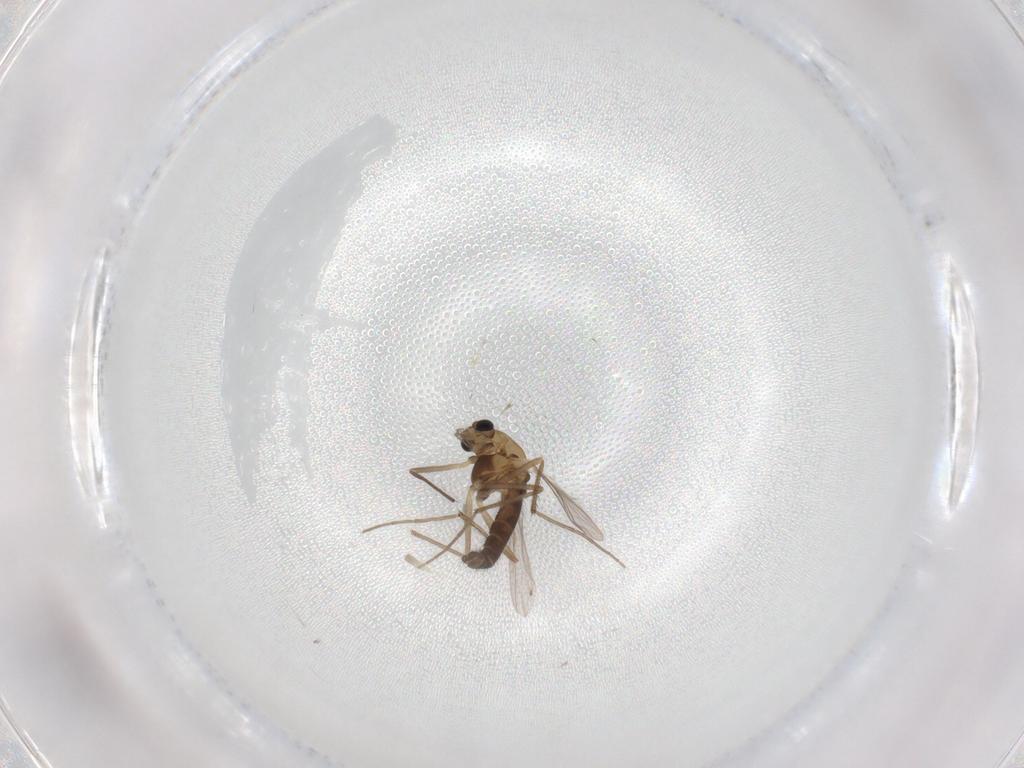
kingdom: Animalia
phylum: Arthropoda
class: Insecta
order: Diptera
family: Chironomidae
